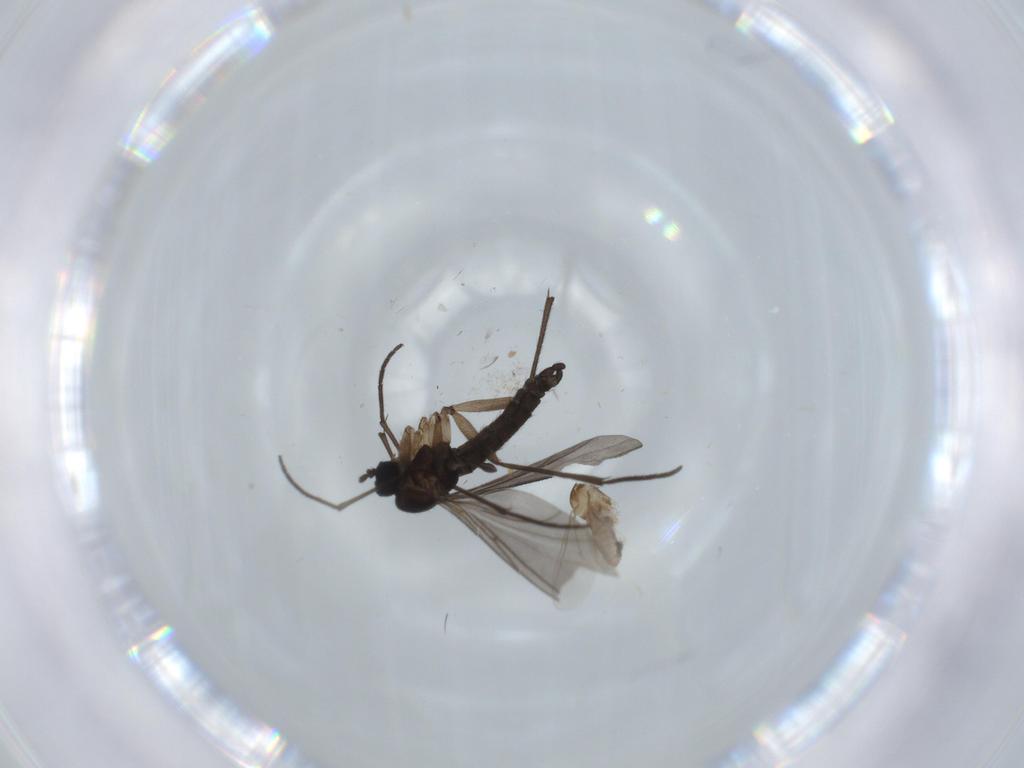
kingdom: Animalia
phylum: Arthropoda
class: Insecta
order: Diptera
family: Sciaridae
